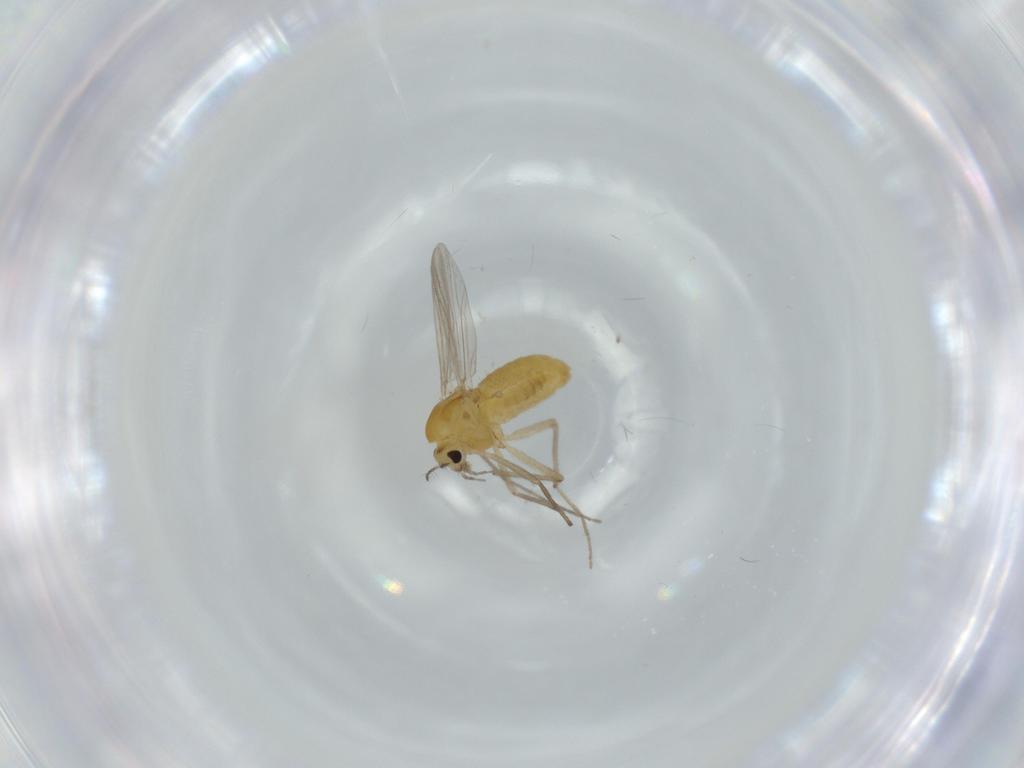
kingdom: Animalia
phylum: Arthropoda
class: Insecta
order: Diptera
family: Chironomidae
